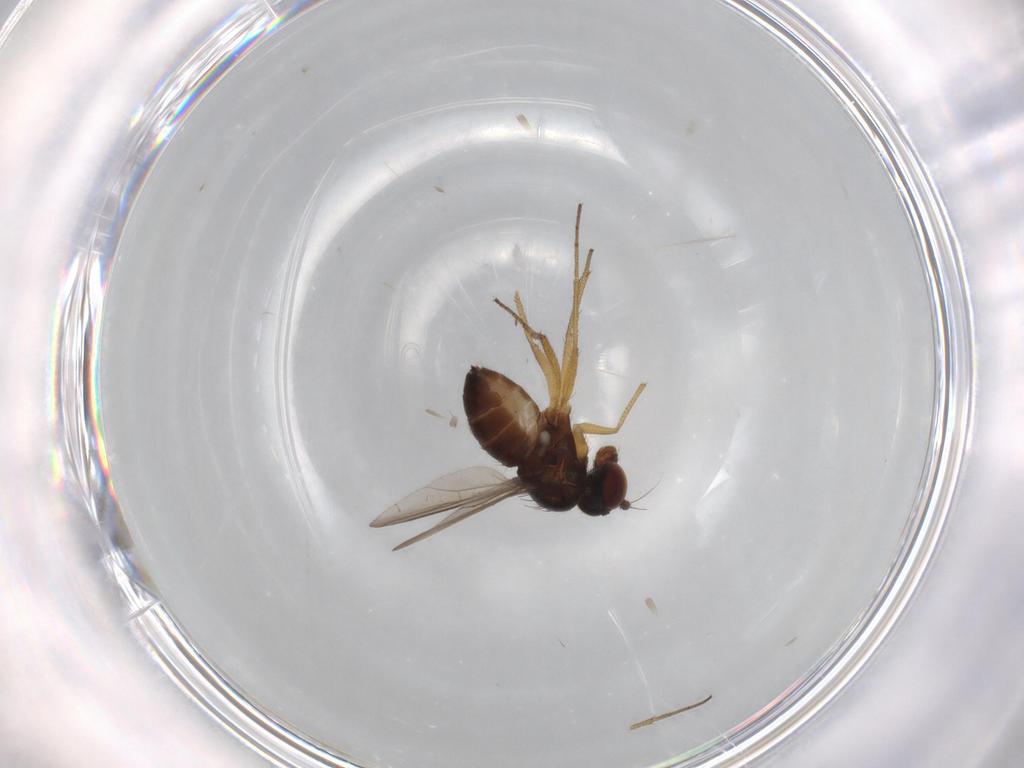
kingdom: Animalia
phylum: Arthropoda
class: Insecta
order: Diptera
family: Dolichopodidae
